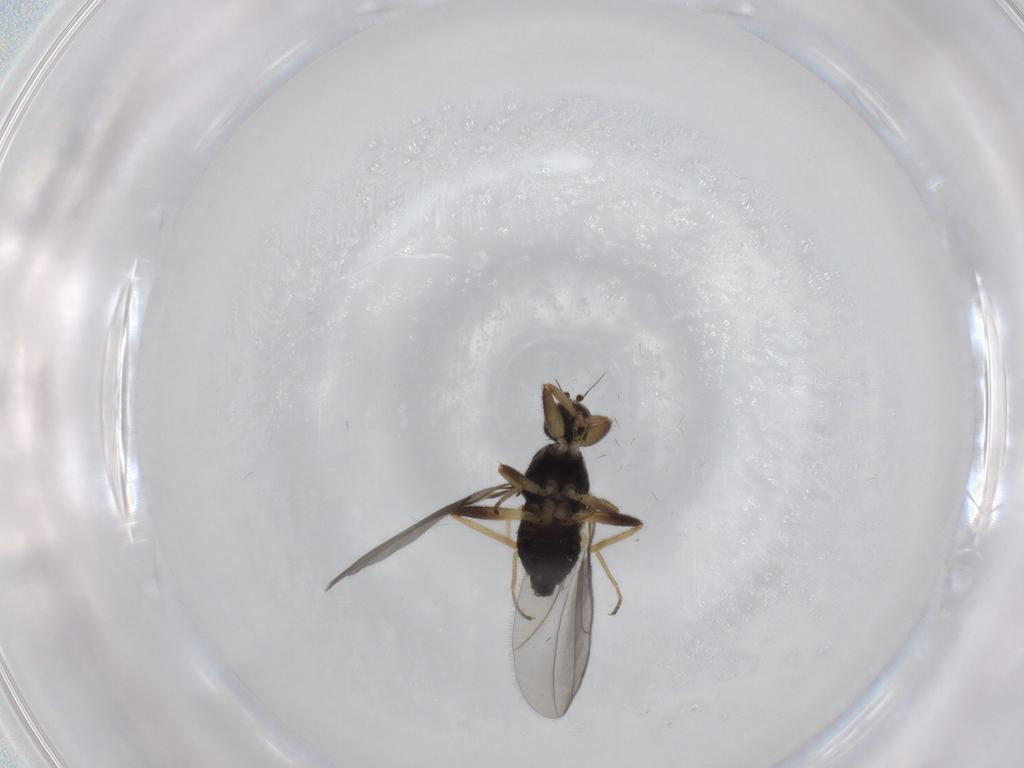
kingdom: Animalia
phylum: Arthropoda
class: Insecta
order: Diptera
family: Hybotidae
